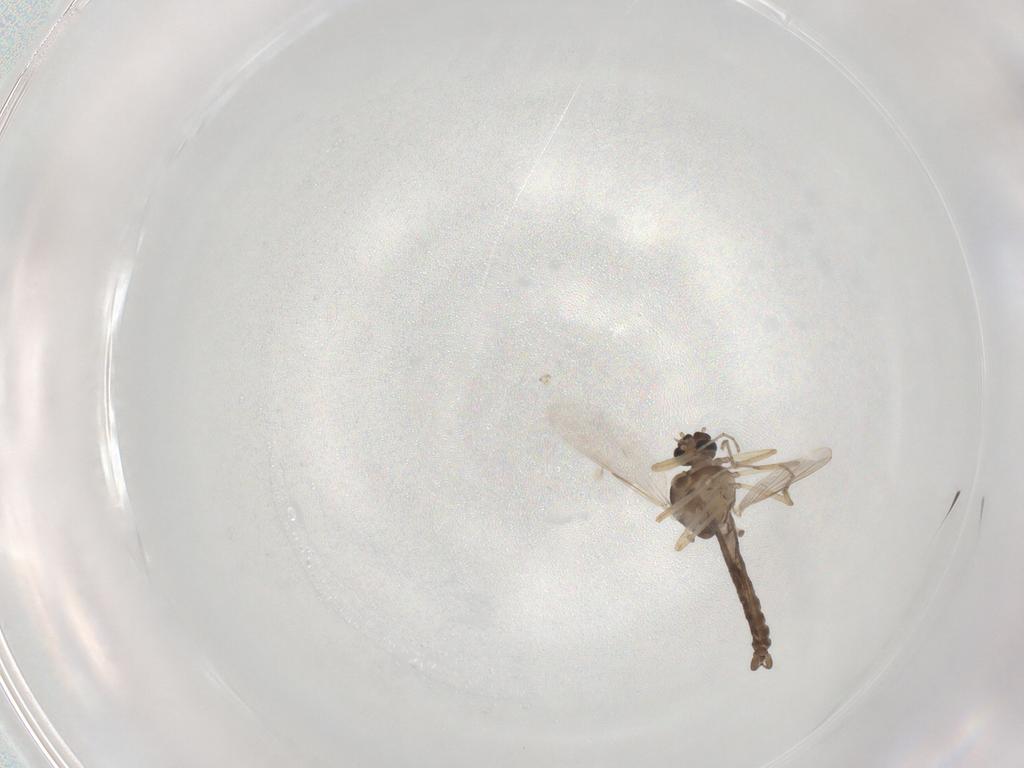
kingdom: Animalia
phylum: Arthropoda
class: Insecta
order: Diptera
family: Ceratopogonidae
